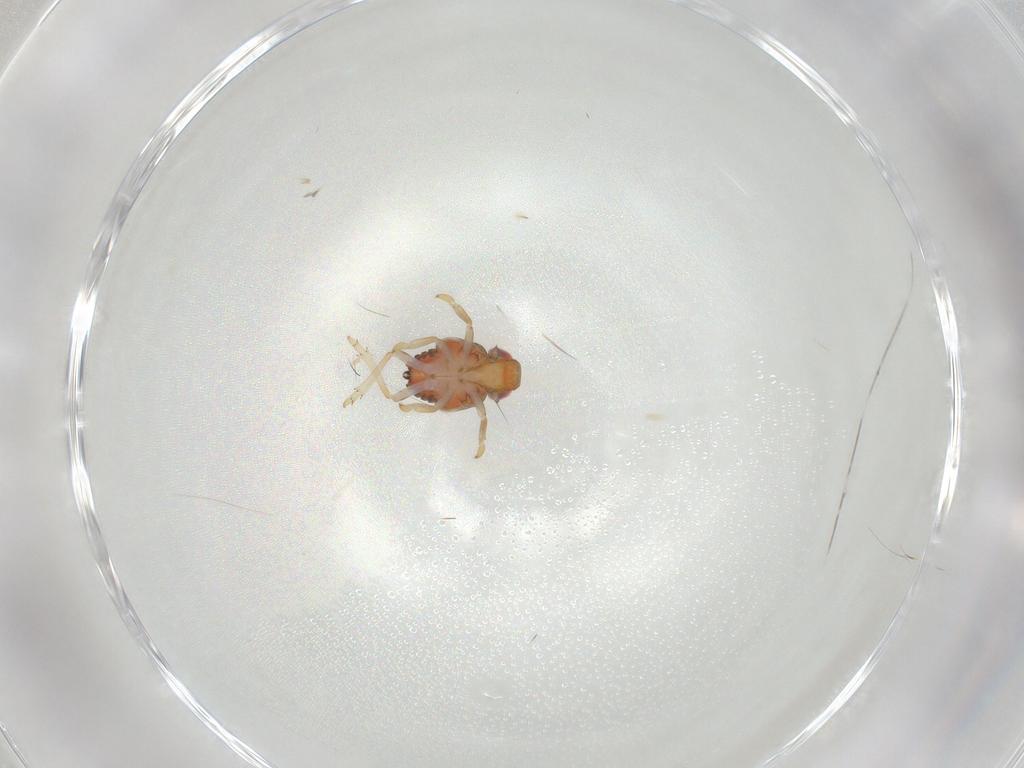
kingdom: Animalia
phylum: Arthropoda
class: Insecta
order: Hemiptera
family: Issidae
